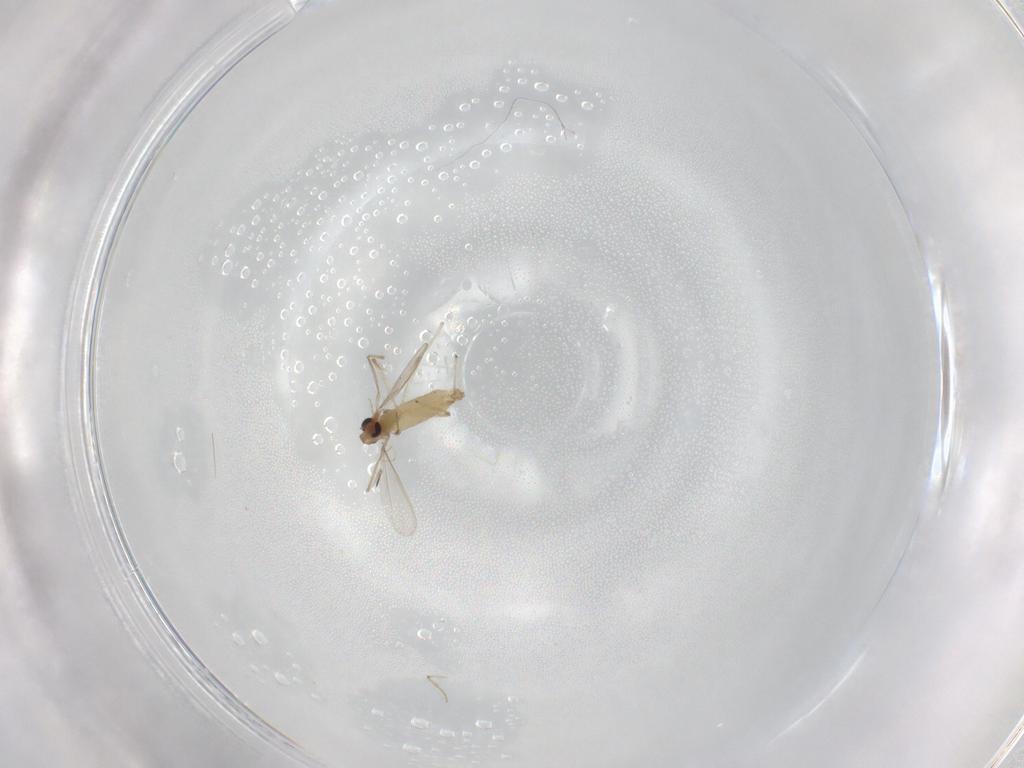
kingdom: Animalia
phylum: Arthropoda
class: Insecta
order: Diptera
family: Chironomidae
